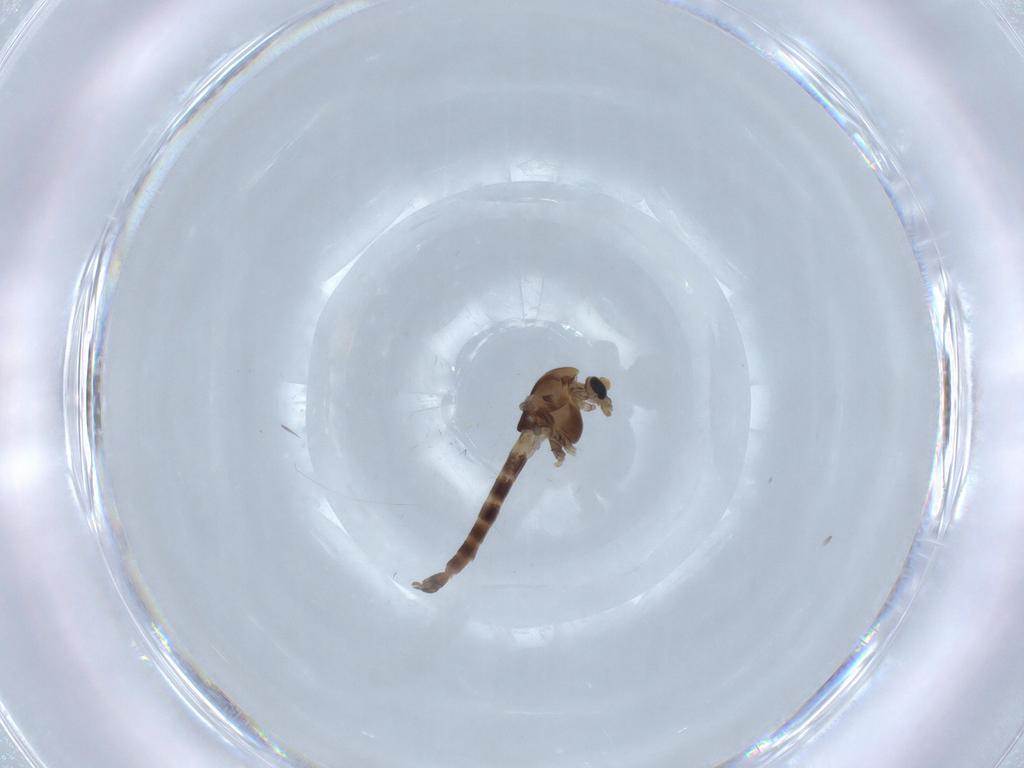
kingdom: Animalia
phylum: Arthropoda
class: Insecta
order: Diptera
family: Chironomidae
